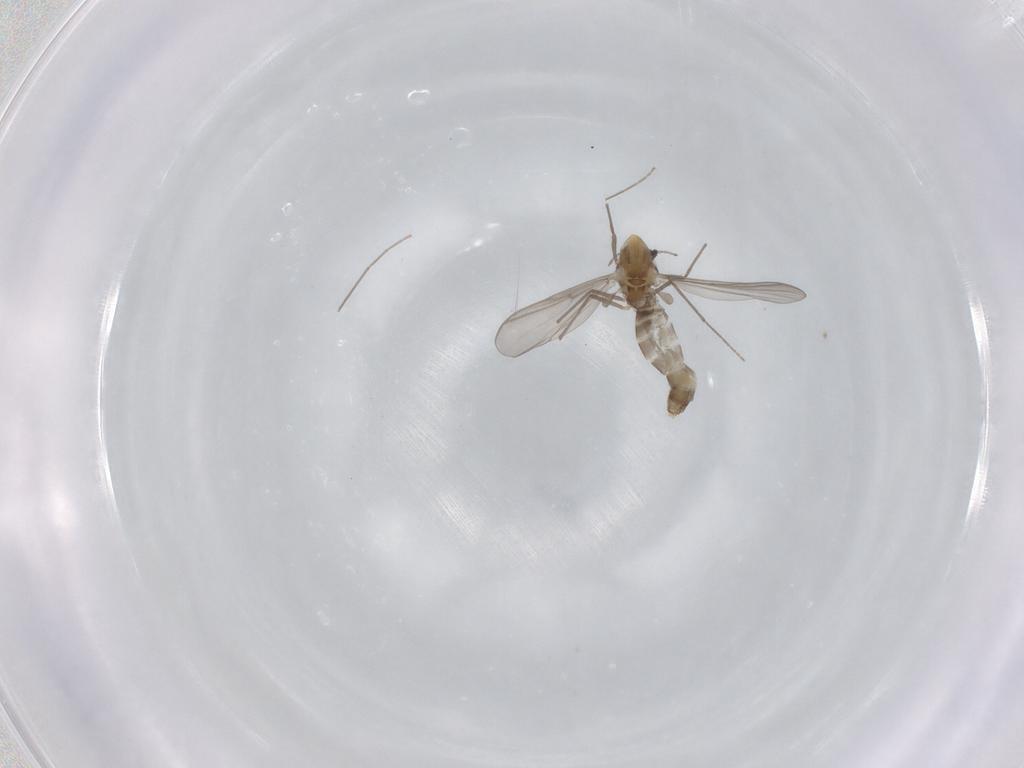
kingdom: Animalia
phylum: Arthropoda
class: Insecta
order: Diptera
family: Chironomidae
